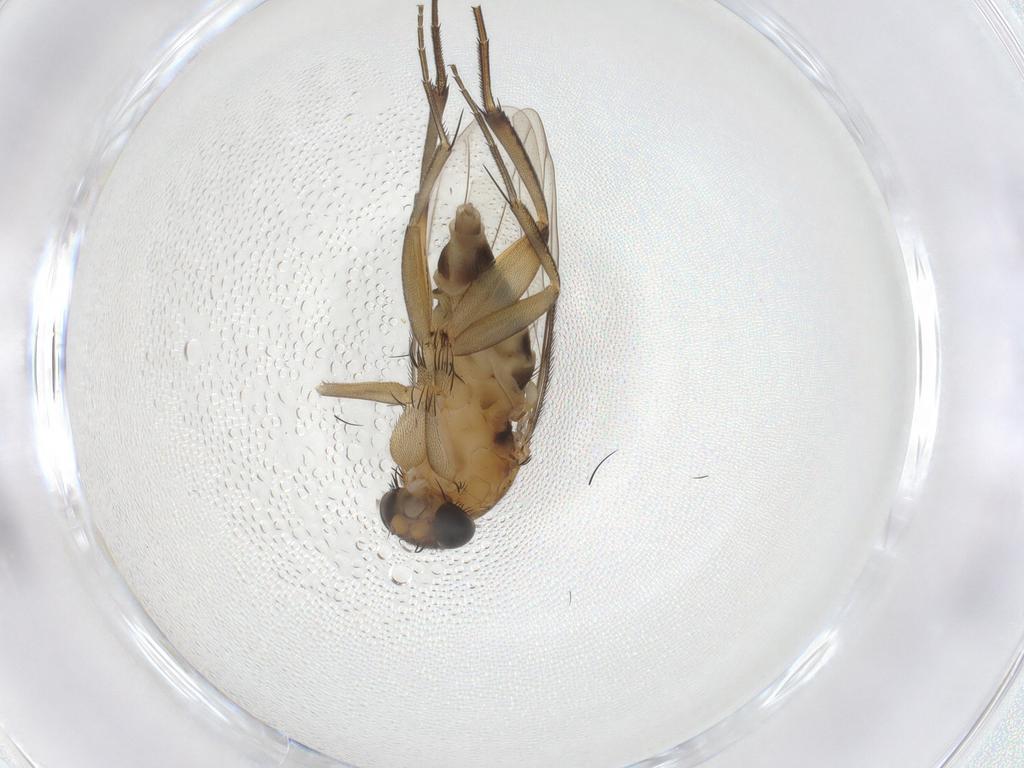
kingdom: Animalia
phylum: Arthropoda
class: Insecta
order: Diptera
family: Phoridae
